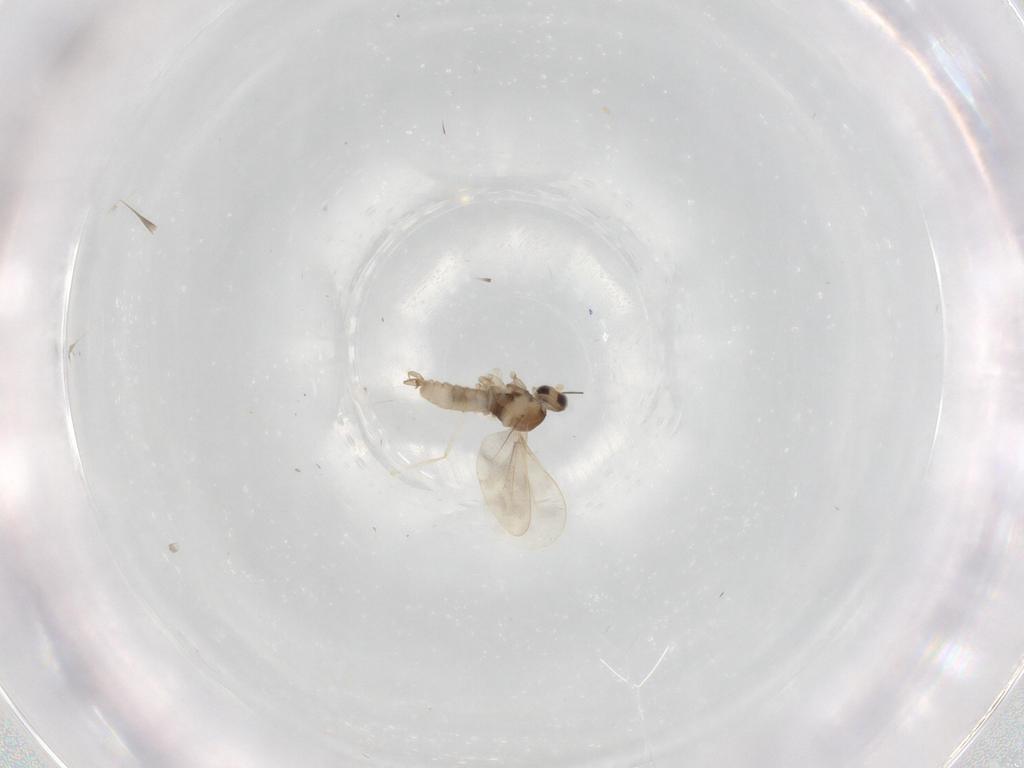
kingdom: Animalia
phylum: Arthropoda
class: Insecta
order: Diptera
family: Cecidomyiidae
